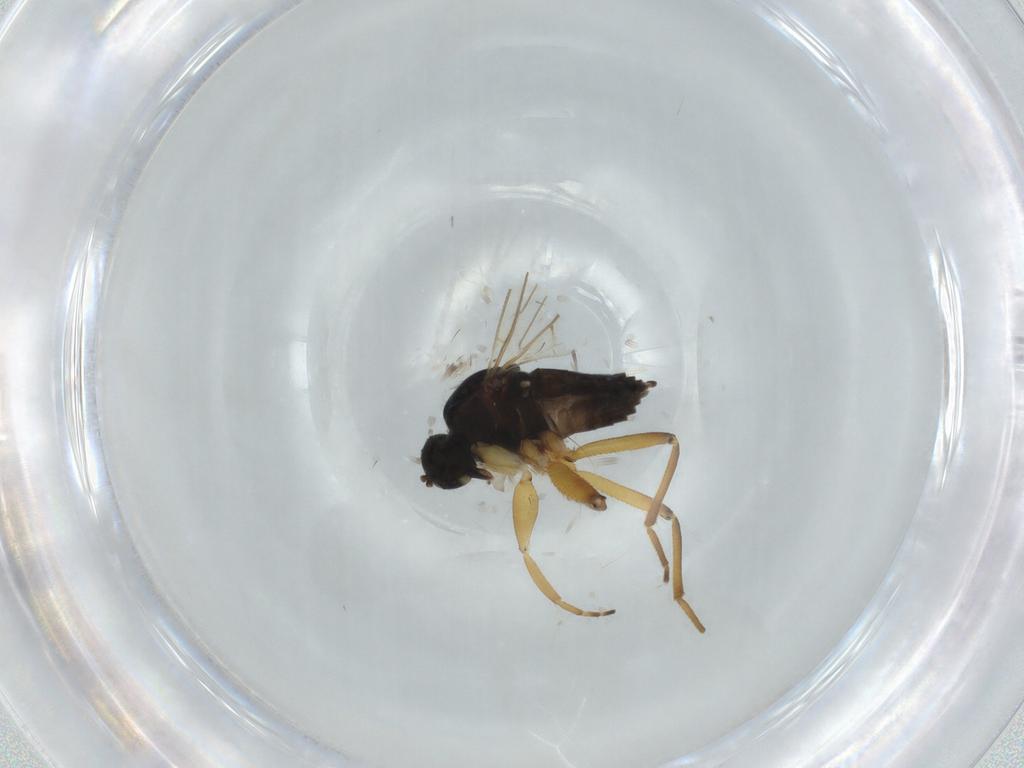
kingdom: Animalia
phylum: Arthropoda
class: Insecta
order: Diptera
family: Hybotidae
